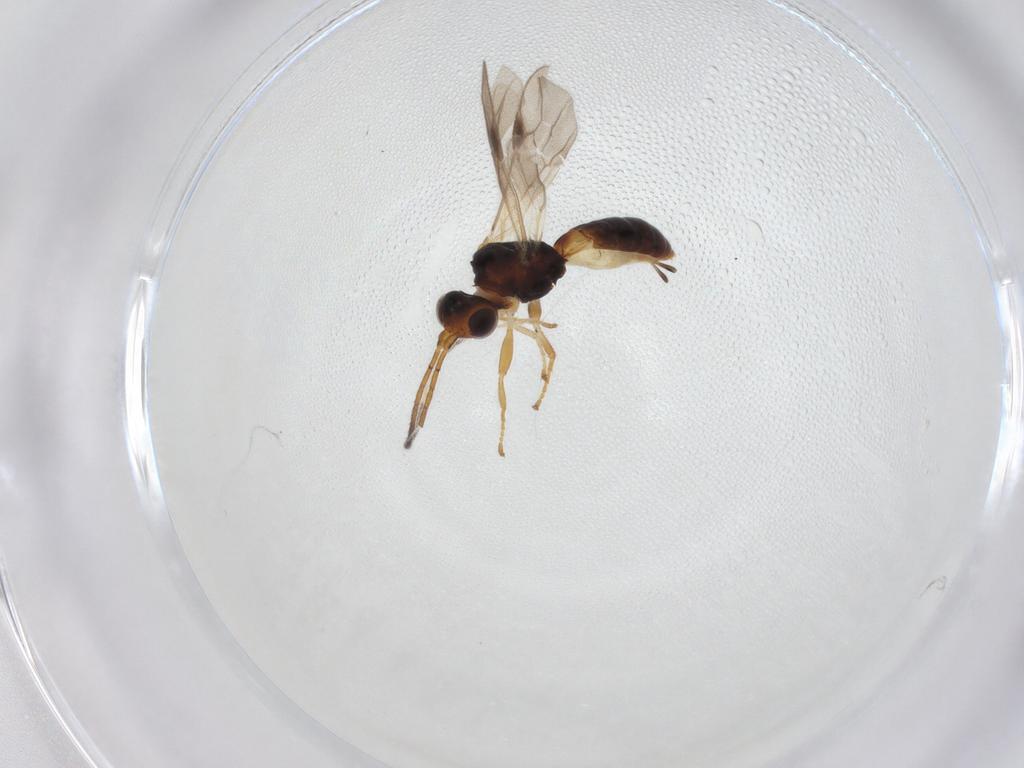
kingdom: Animalia
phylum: Arthropoda
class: Insecta
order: Hymenoptera
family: Braconidae
